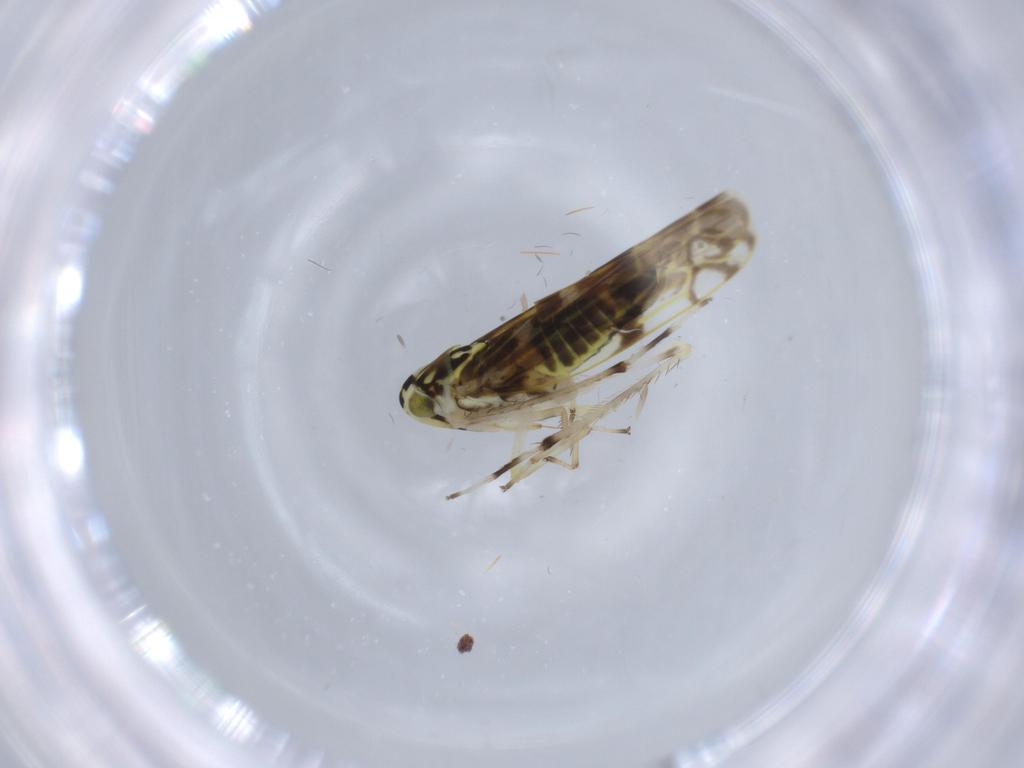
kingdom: Animalia
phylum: Arthropoda
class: Insecta
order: Hemiptera
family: Cicadellidae
